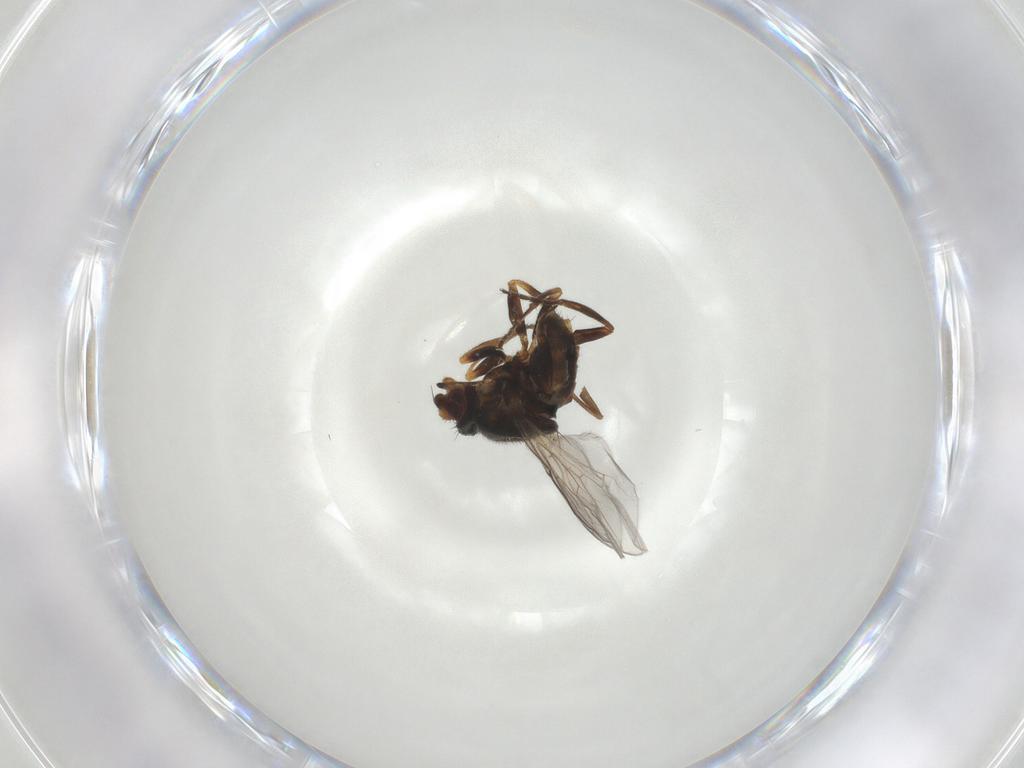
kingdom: Animalia
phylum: Arthropoda
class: Insecta
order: Diptera
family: Chloropidae
